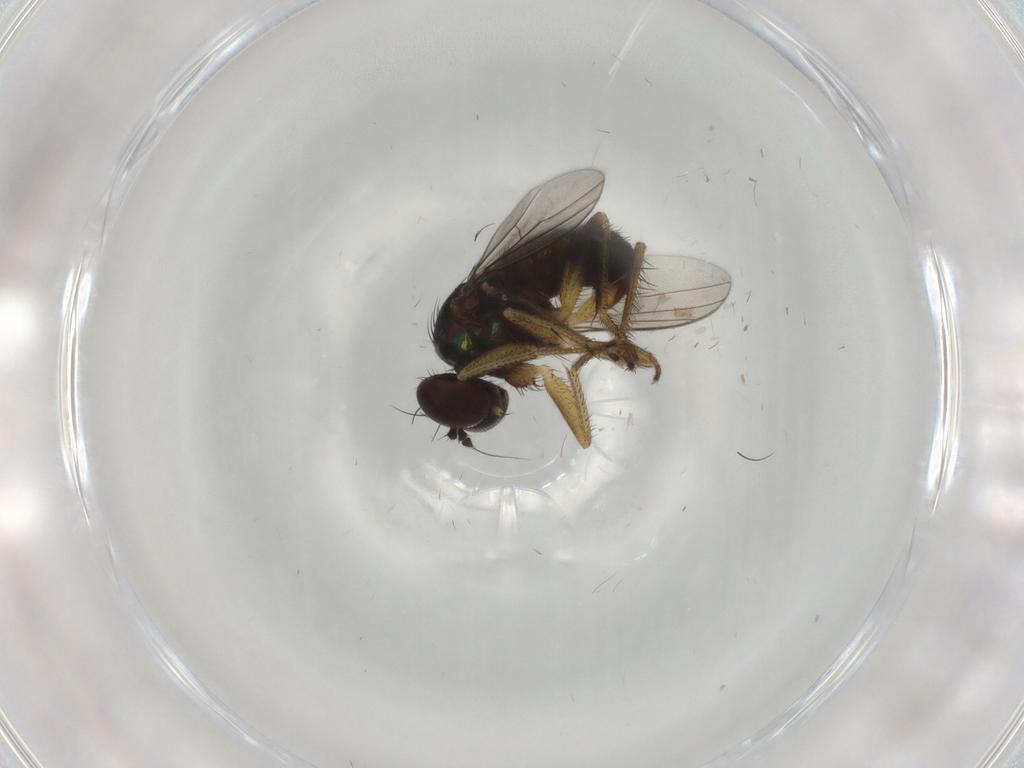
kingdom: Animalia
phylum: Arthropoda
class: Insecta
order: Diptera
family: Dolichopodidae
